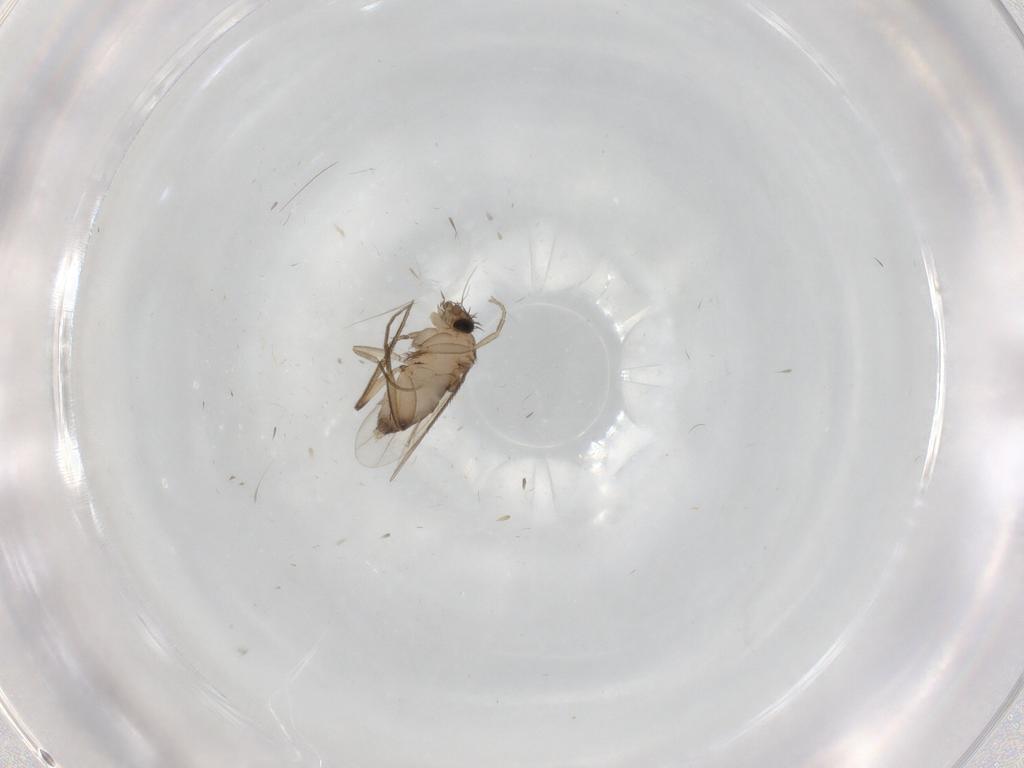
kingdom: Animalia
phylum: Arthropoda
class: Insecta
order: Diptera
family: Phoridae
